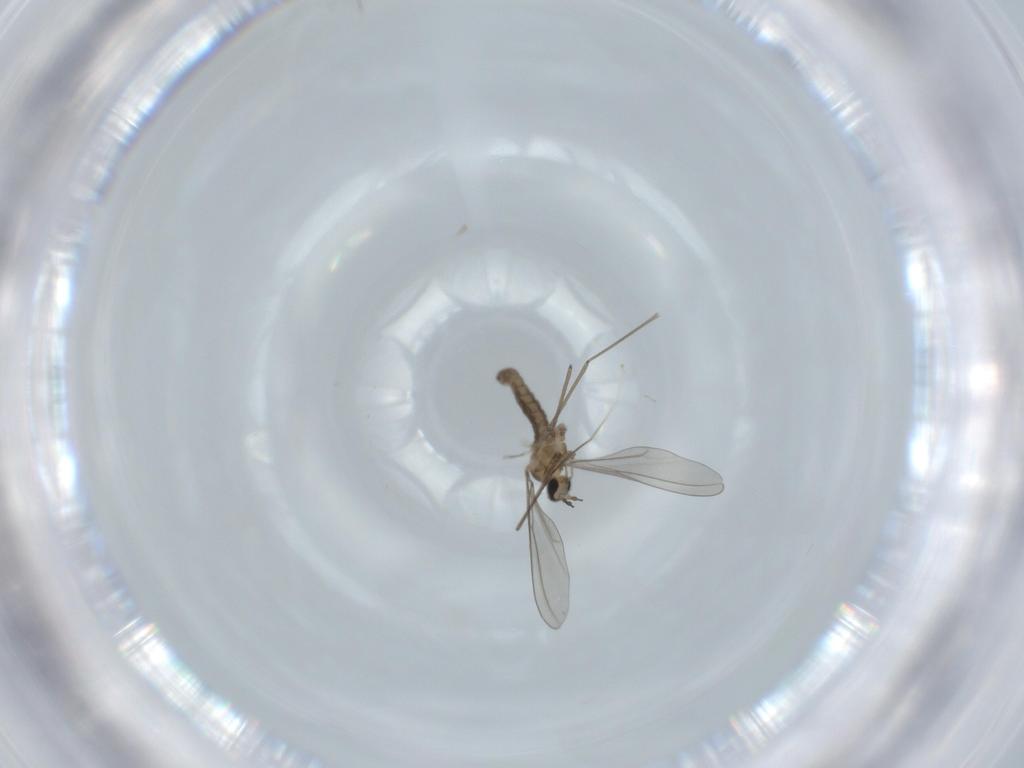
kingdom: Animalia
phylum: Arthropoda
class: Insecta
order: Diptera
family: Cecidomyiidae
